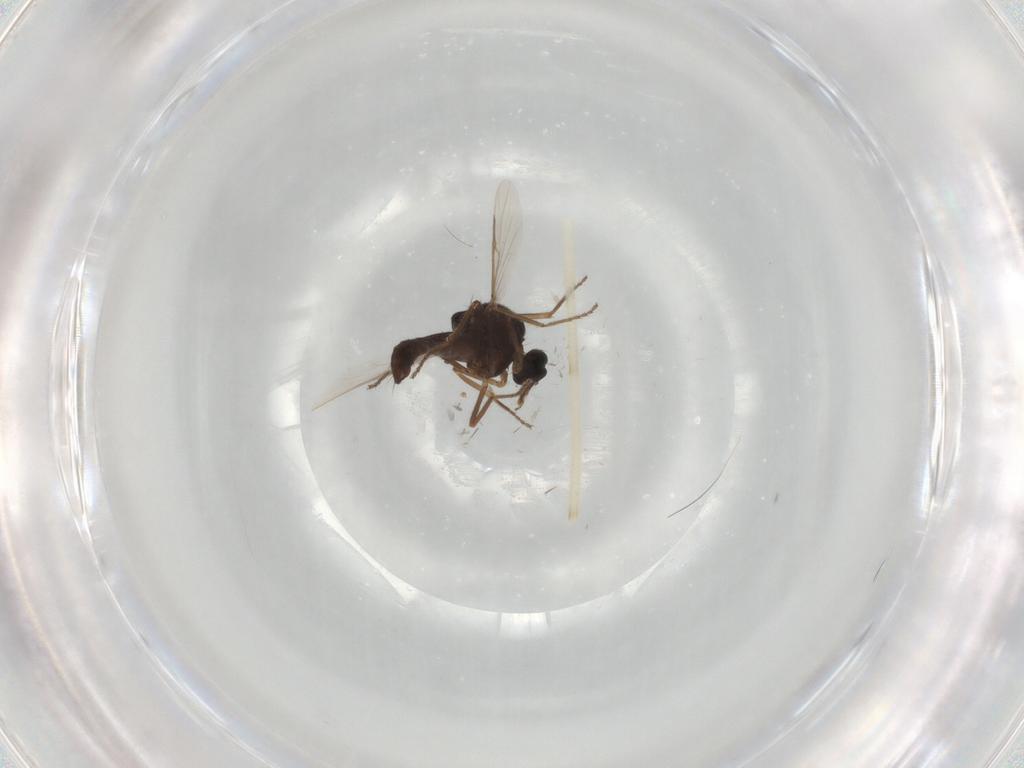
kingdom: Animalia
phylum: Arthropoda
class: Insecta
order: Diptera
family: Ceratopogonidae
